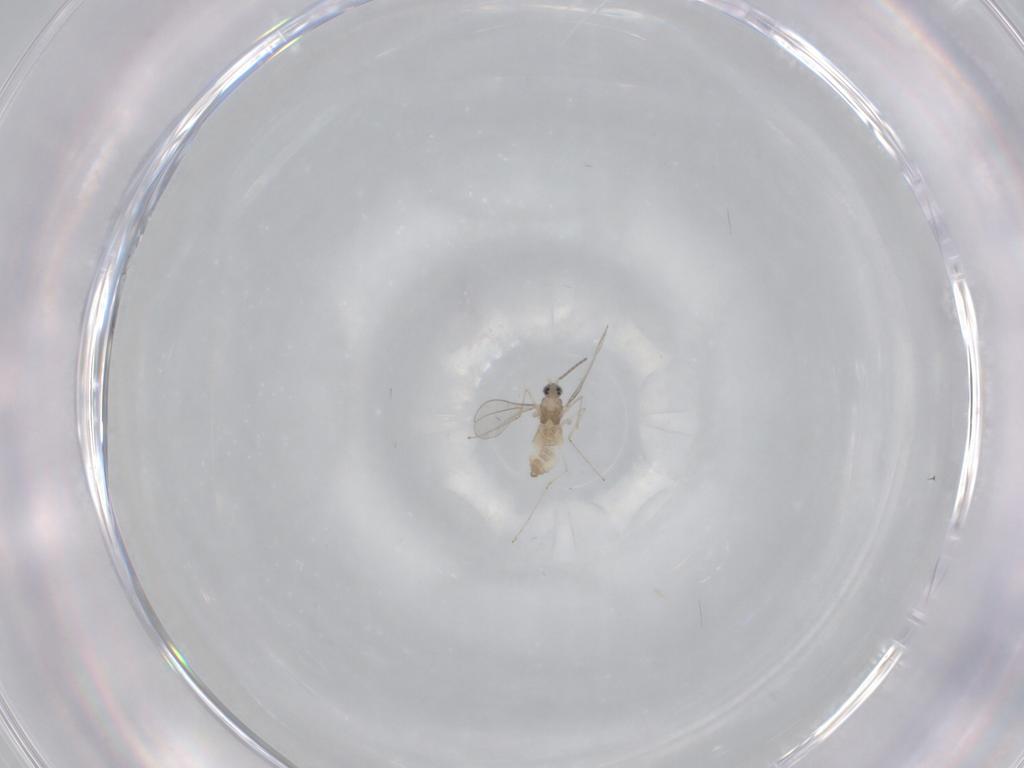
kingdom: Animalia
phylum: Arthropoda
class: Insecta
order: Diptera
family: Cecidomyiidae
